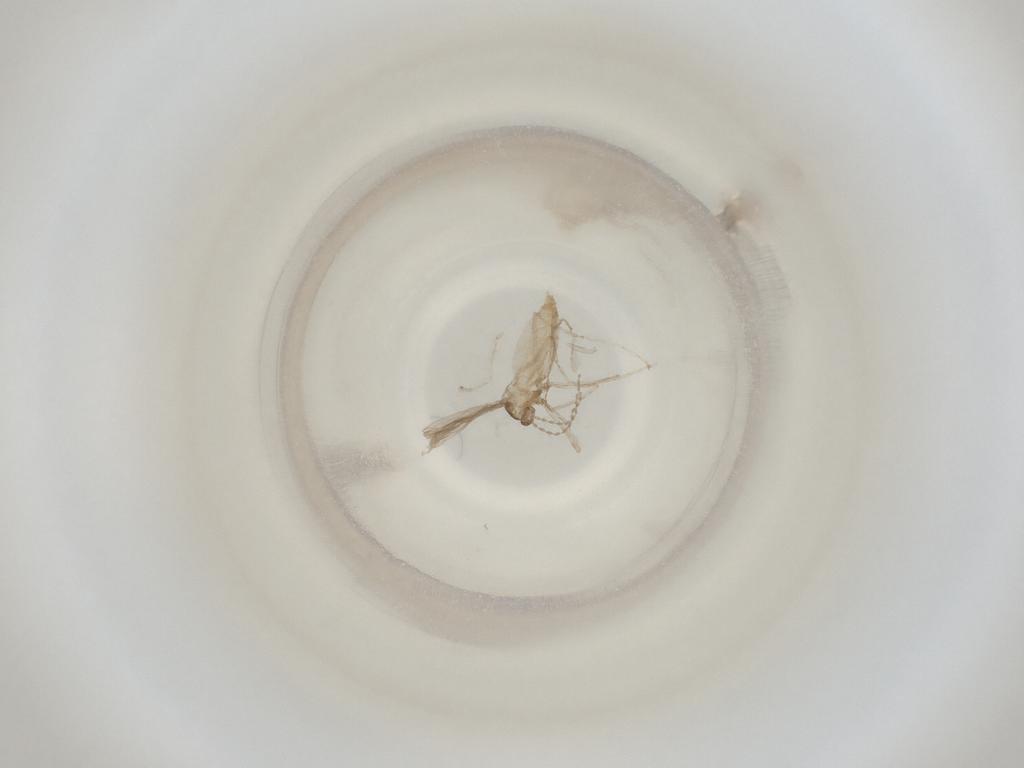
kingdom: Animalia
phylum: Arthropoda
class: Insecta
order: Diptera
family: Cecidomyiidae
